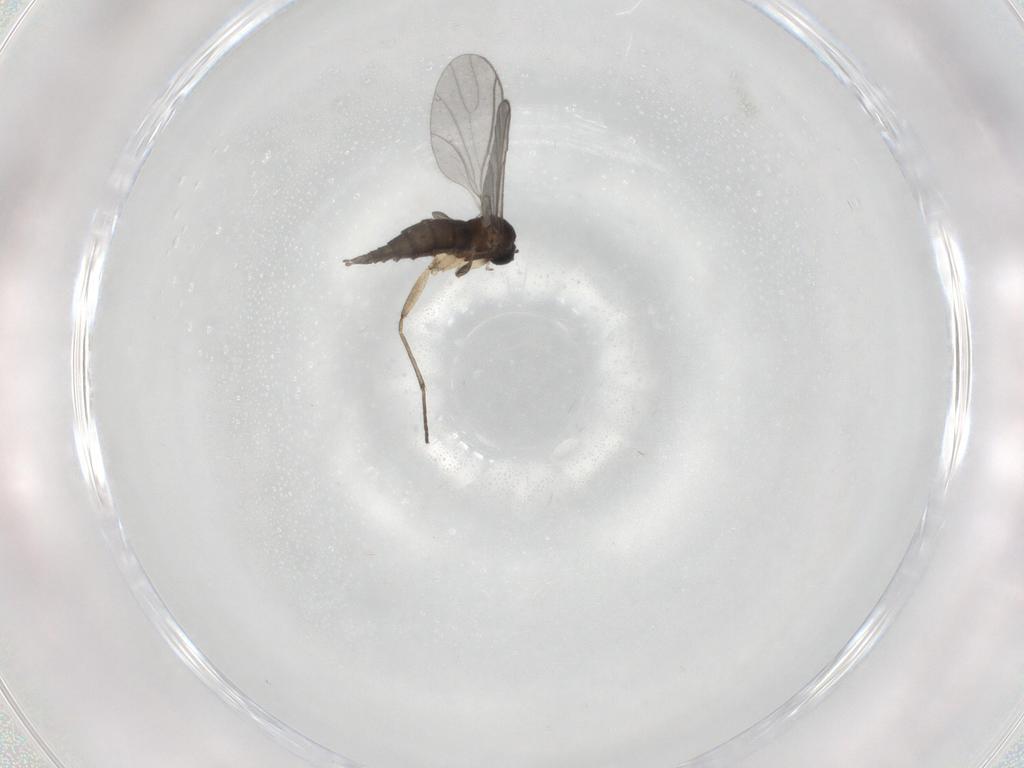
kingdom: Animalia
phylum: Arthropoda
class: Insecta
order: Diptera
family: Sciaridae
